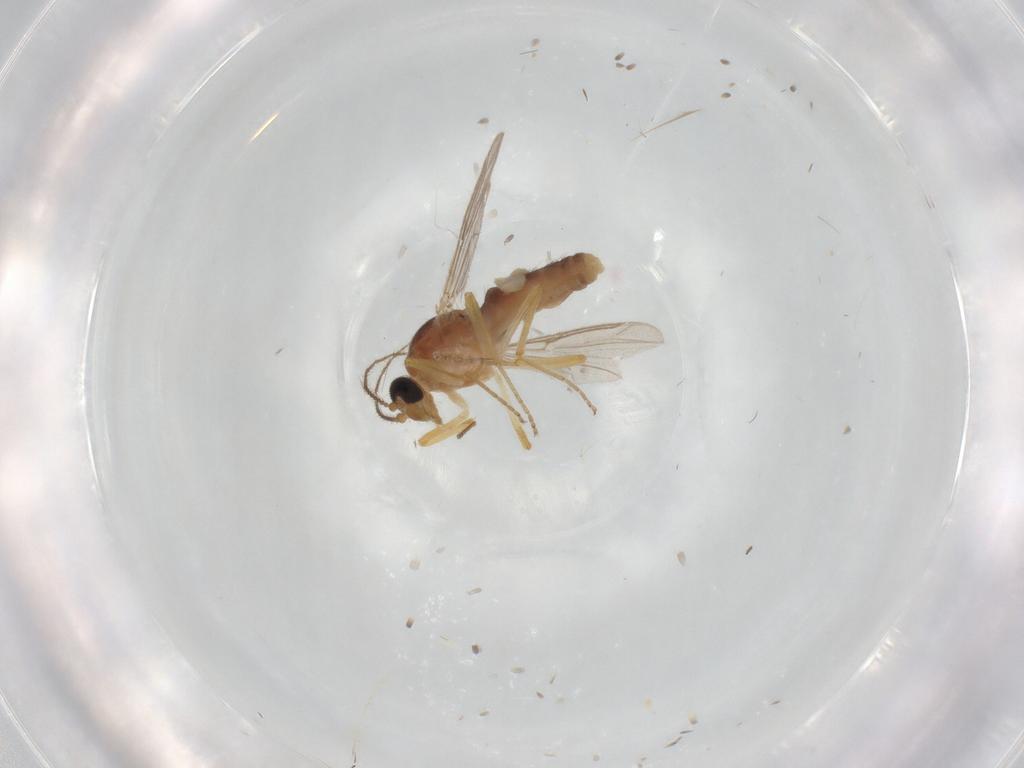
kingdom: Animalia
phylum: Arthropoda
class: Insecta
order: Diptera
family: Ceratopogonidae
